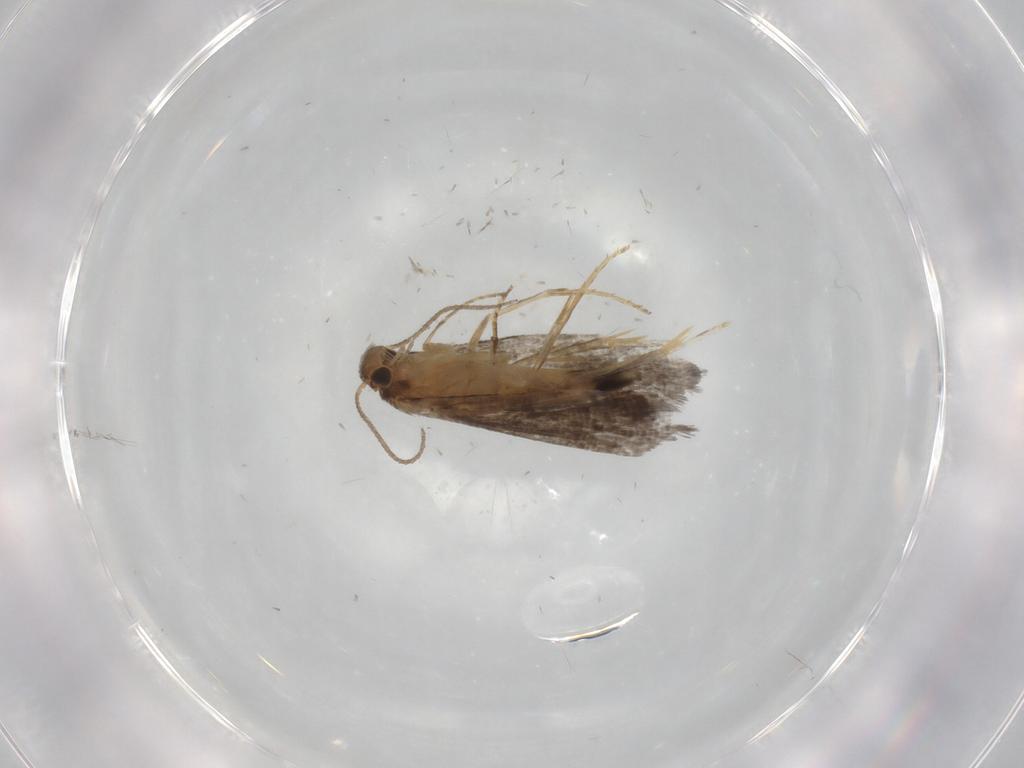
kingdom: Animalia
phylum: Arthropoda
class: Insecta
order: Lepidoptera
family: Glyphipterigidae
